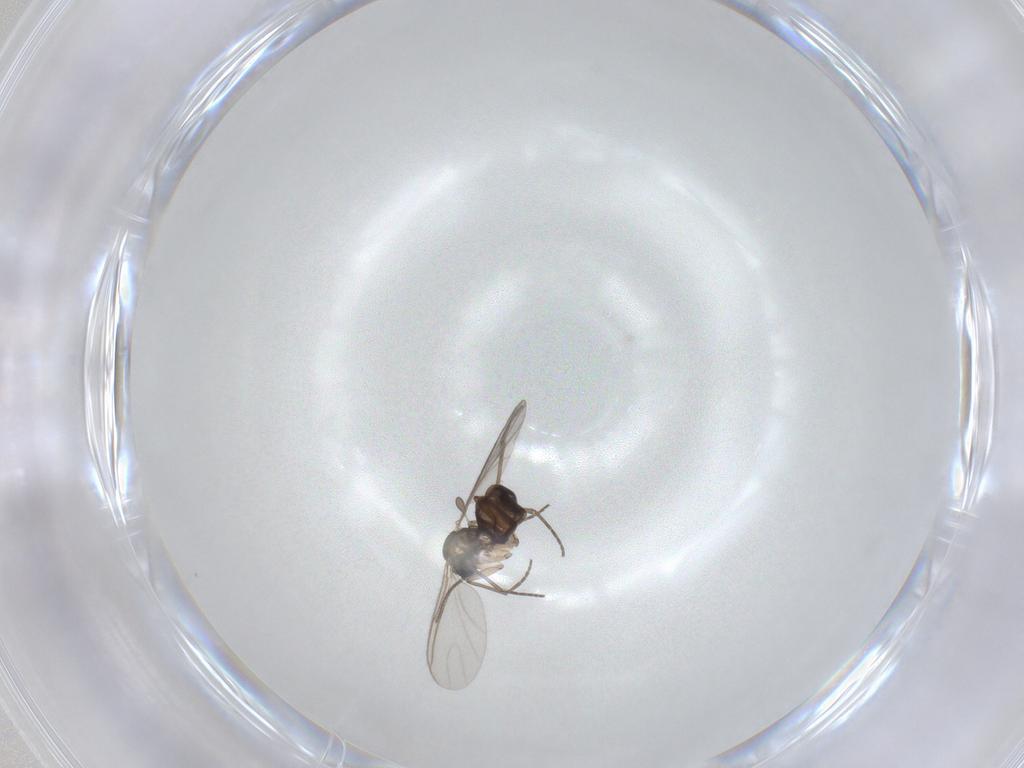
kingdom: Animalia
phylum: Arthropoda
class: Insecta
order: Diptera
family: Sciaridae
